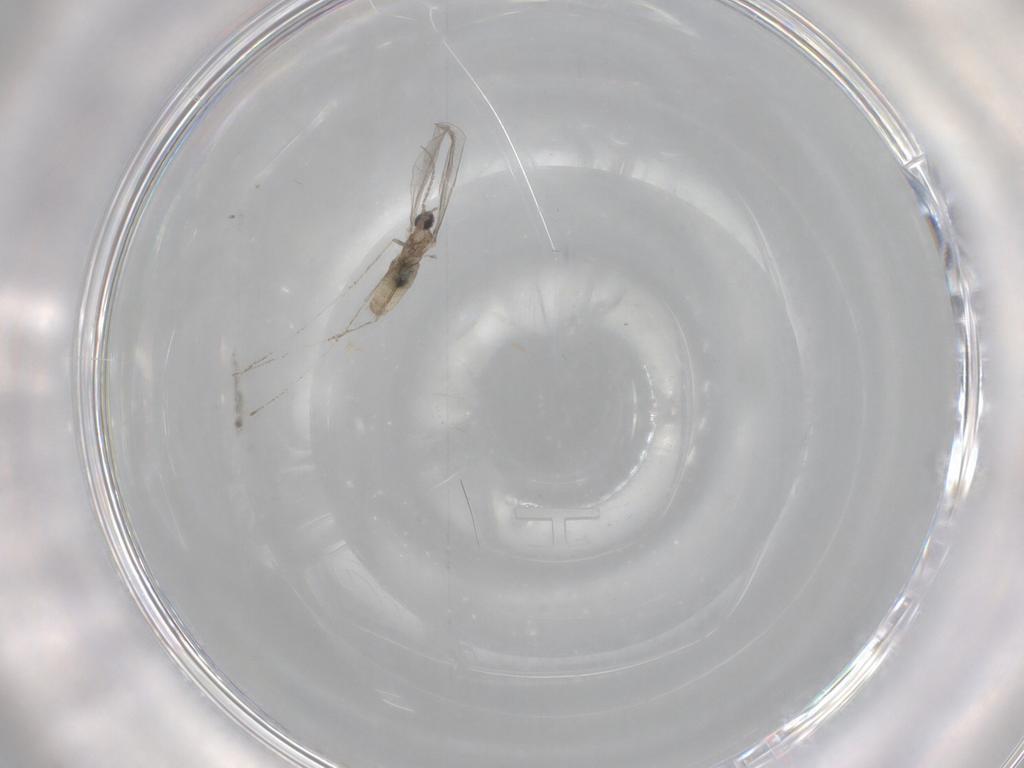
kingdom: Animalia
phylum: Arthropoda
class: Insecta
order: Diptera
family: Cecidomyiidae
